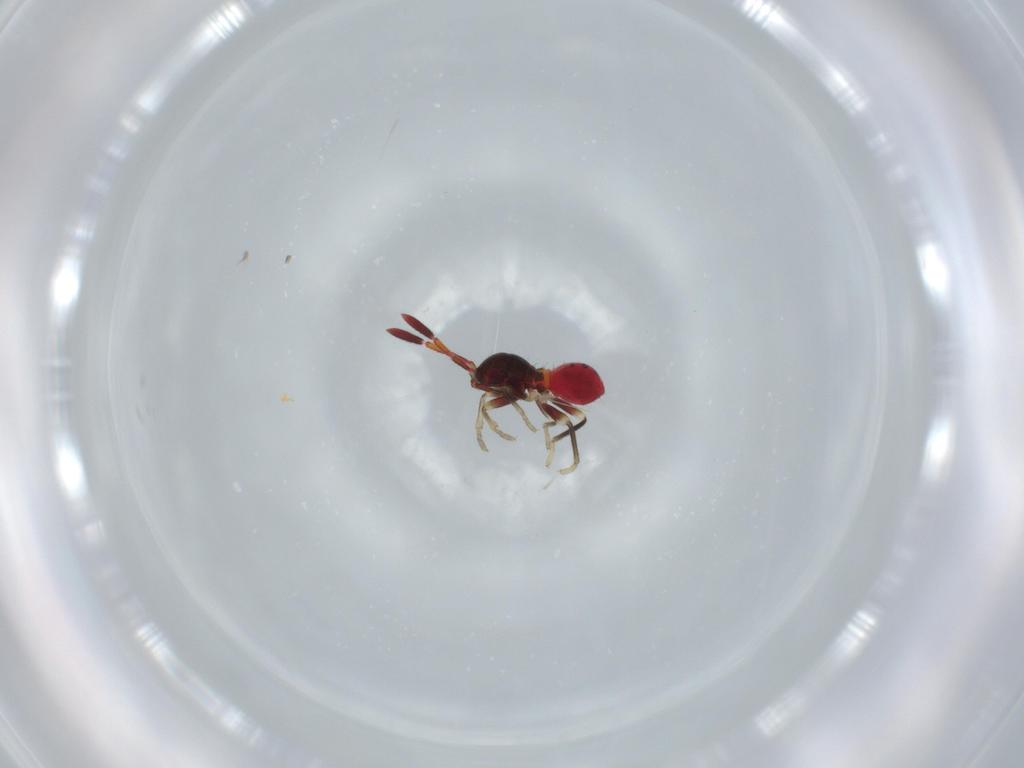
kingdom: Animalia
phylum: Arthropoda
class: Insecta
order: Hemiptera
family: Rhyparochromidae
